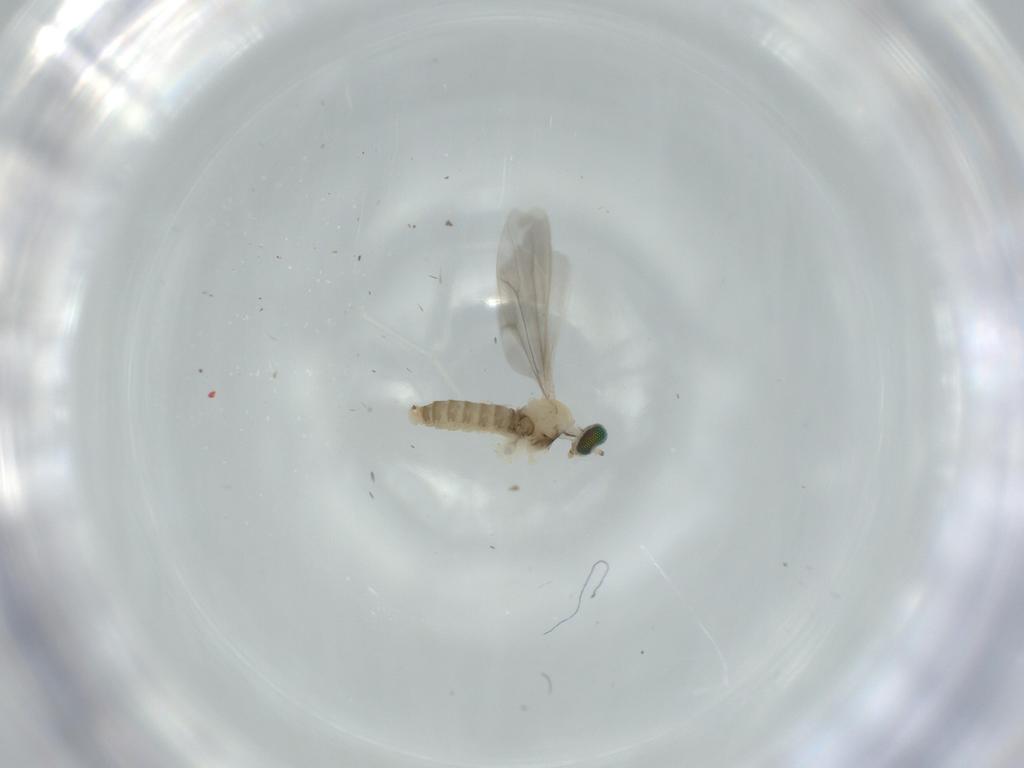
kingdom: Animalia
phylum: Arthropoda
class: Insecta
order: Diptera
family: Cecidomyiidae
